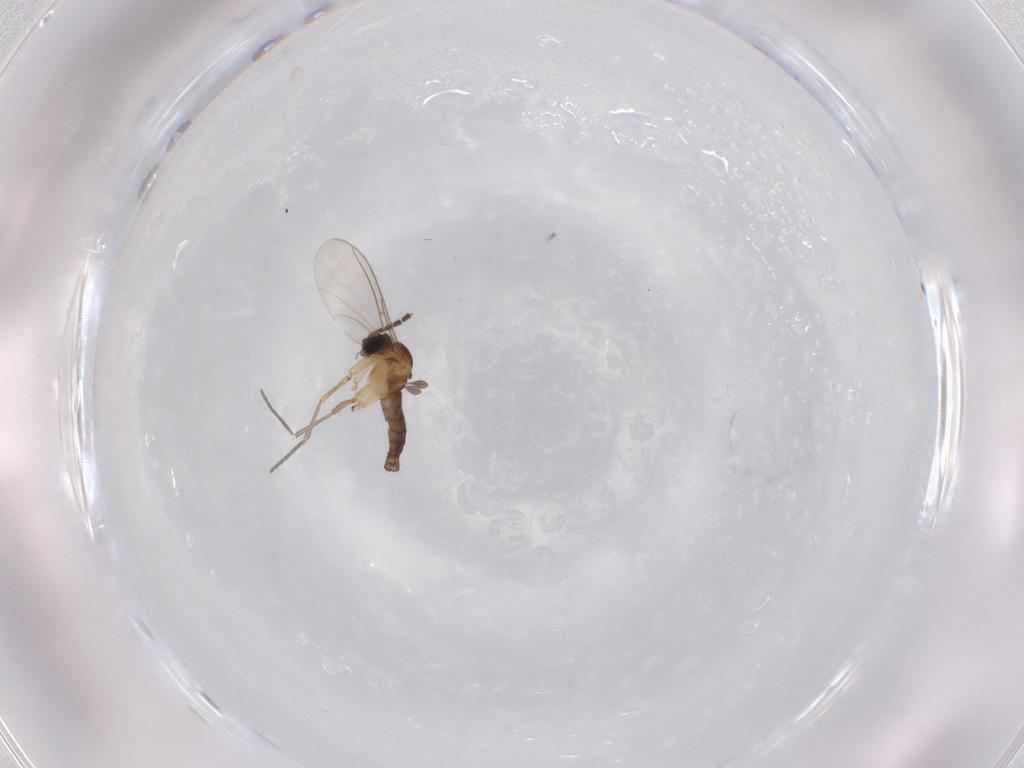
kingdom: Animalia
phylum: Arthropoda
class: Insecta
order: Diptera
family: Sciaridae
